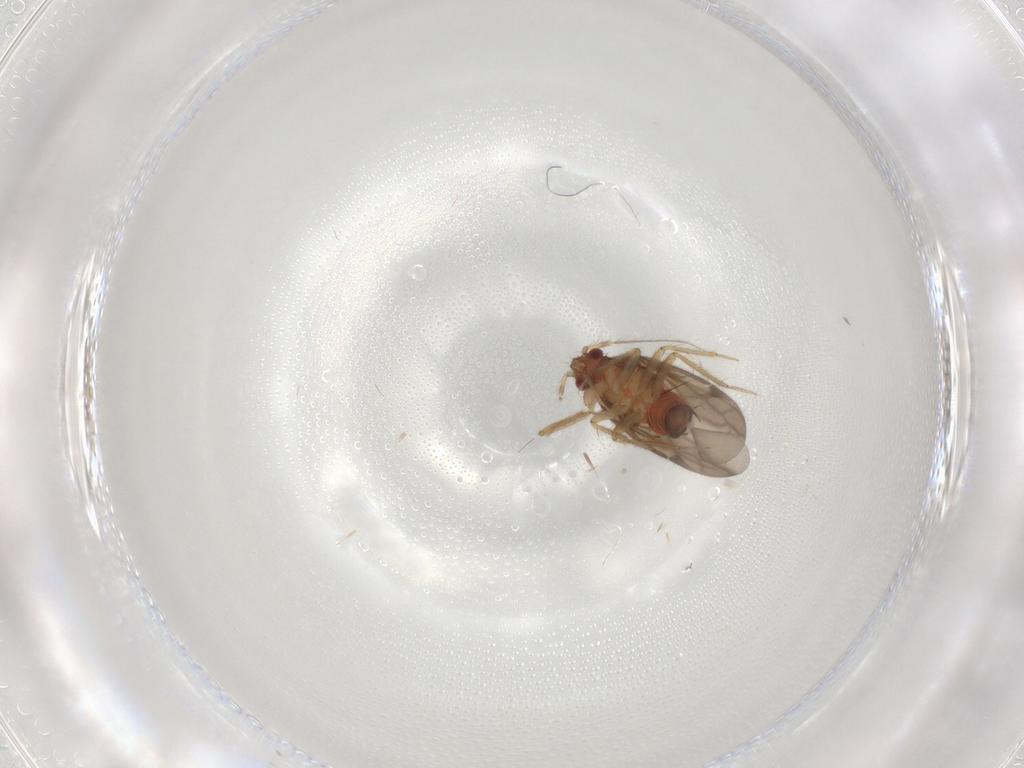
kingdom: Animalia
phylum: Arthropoda
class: Insecta
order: Hemiptera
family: Ceratocombidae
